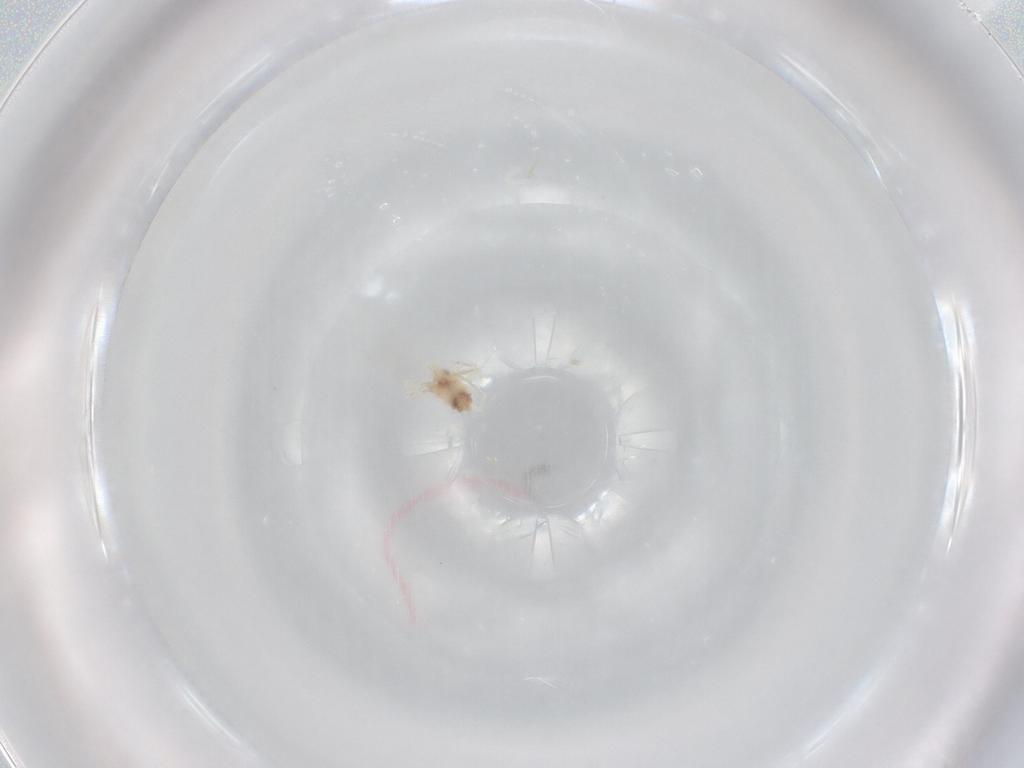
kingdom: Animalia
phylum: Arthropoda
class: Arachnida
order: Trombidiformes
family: Anystidae
